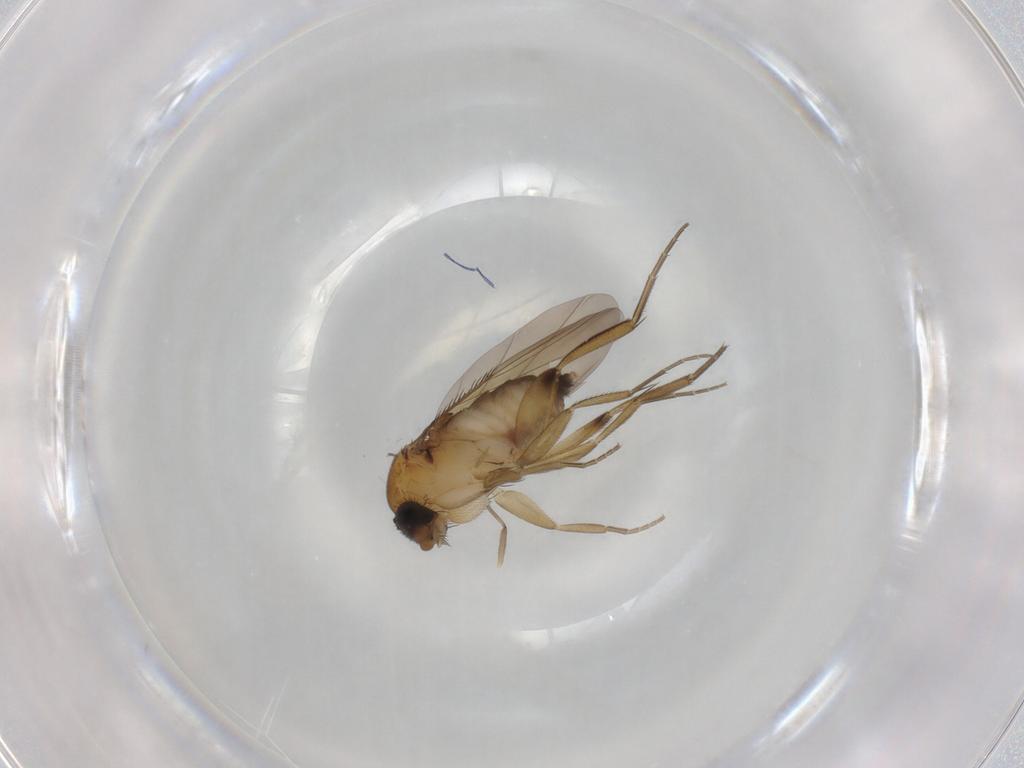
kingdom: Animalia
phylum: Arthropoda
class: Insecta
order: Diptera
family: Phoridae
